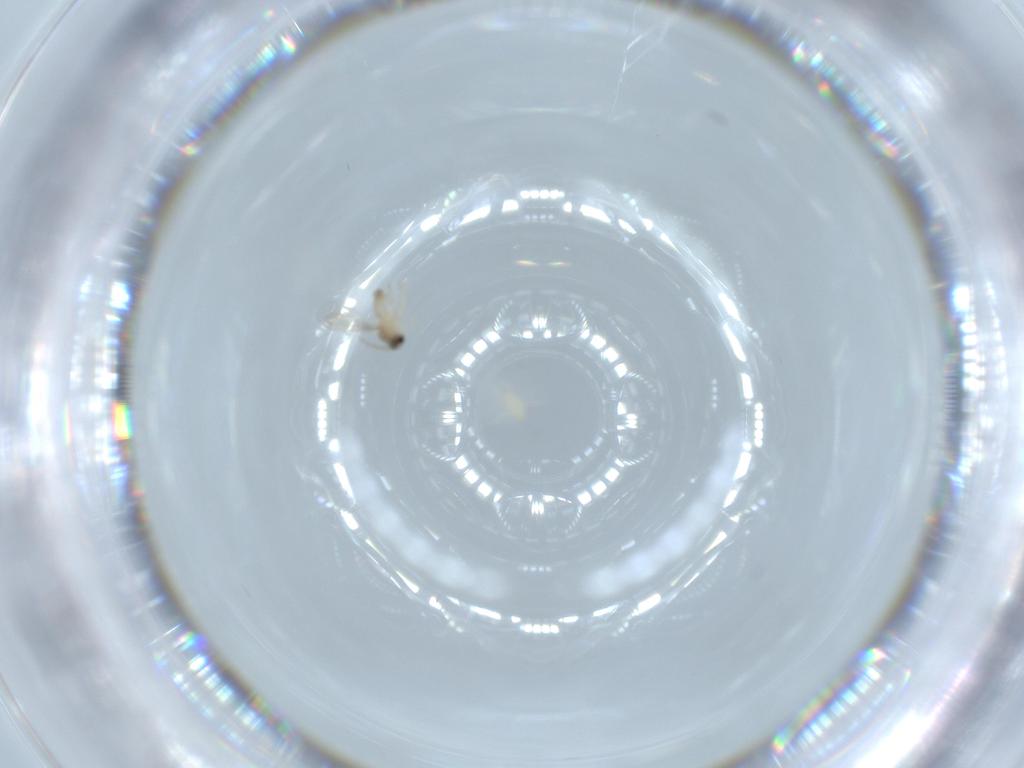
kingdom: Animalia
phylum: Arthropoda
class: Insecta
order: Diptera
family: Cecidomyiidae
